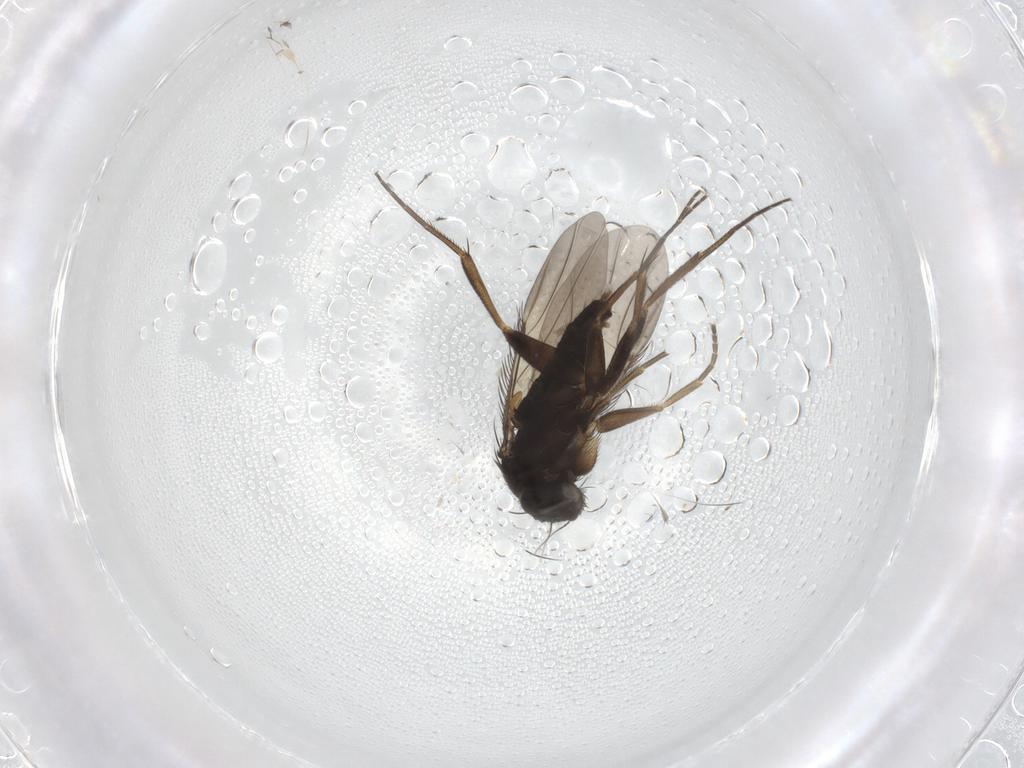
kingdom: Animalia
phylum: Arthropoda
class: Insecta
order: Diptera
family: Phoridae
